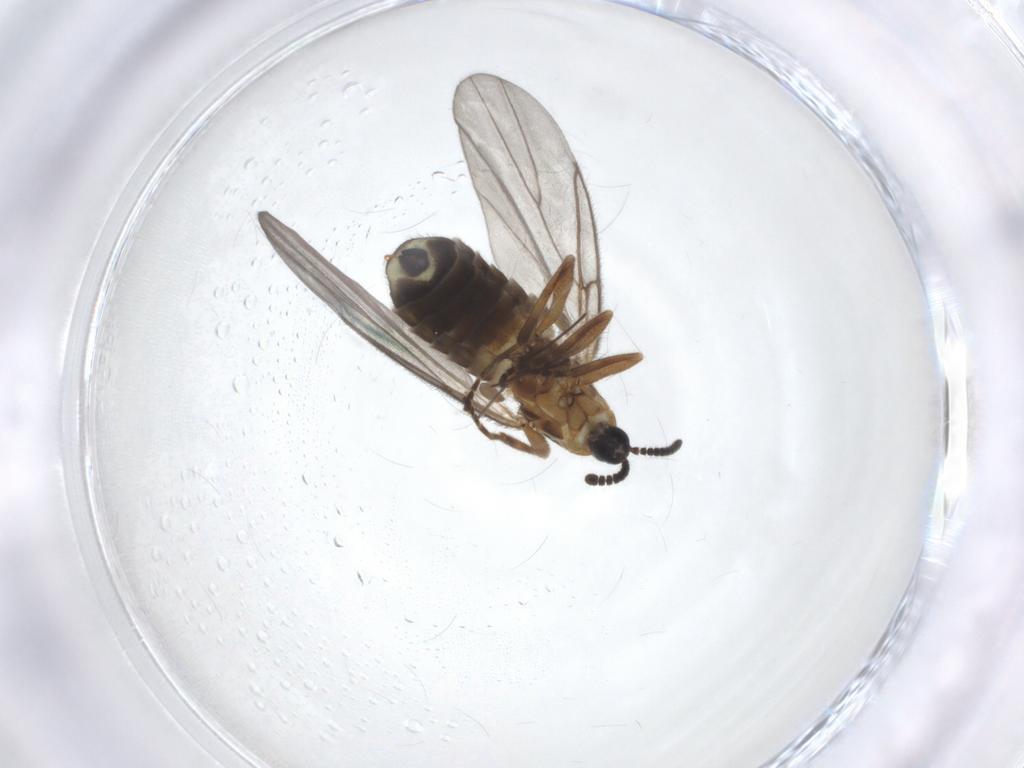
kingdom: Animalia
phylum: Arthropoda
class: Insecta
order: Diptera
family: Scatopsidae
